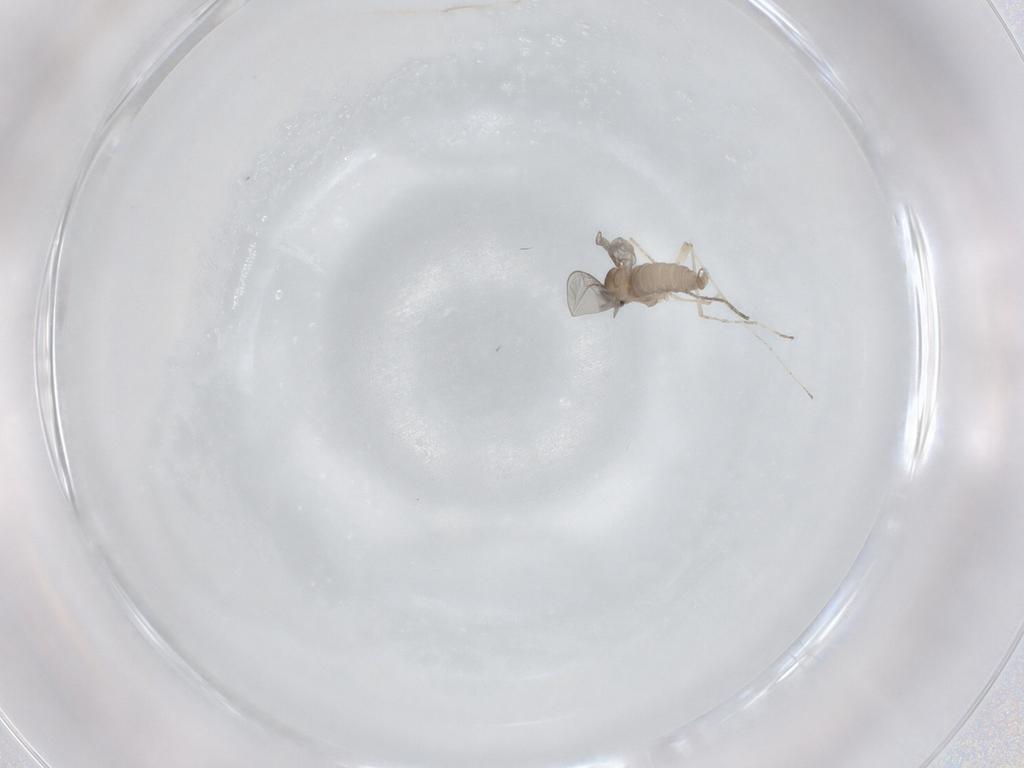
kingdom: Animalia
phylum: Arthropoda
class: Insecta
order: Diptera
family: Cecidomyiidae
